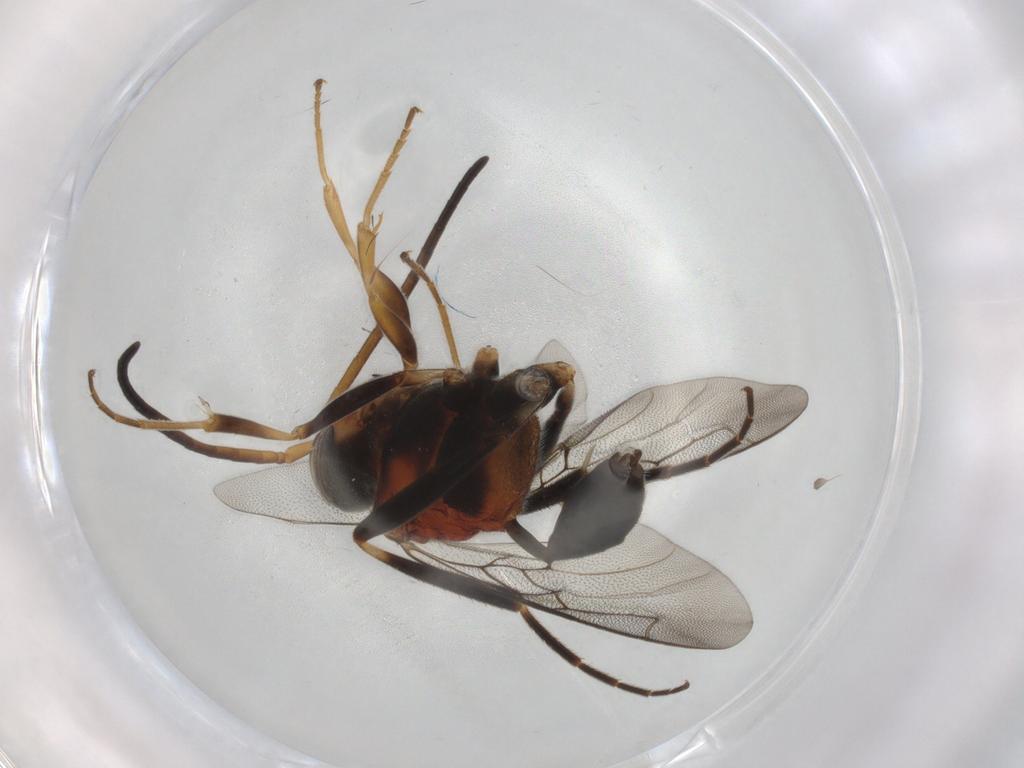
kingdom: Animalia
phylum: Arthropoda
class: Insecta
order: Hymenoptera
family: Evaniidae
